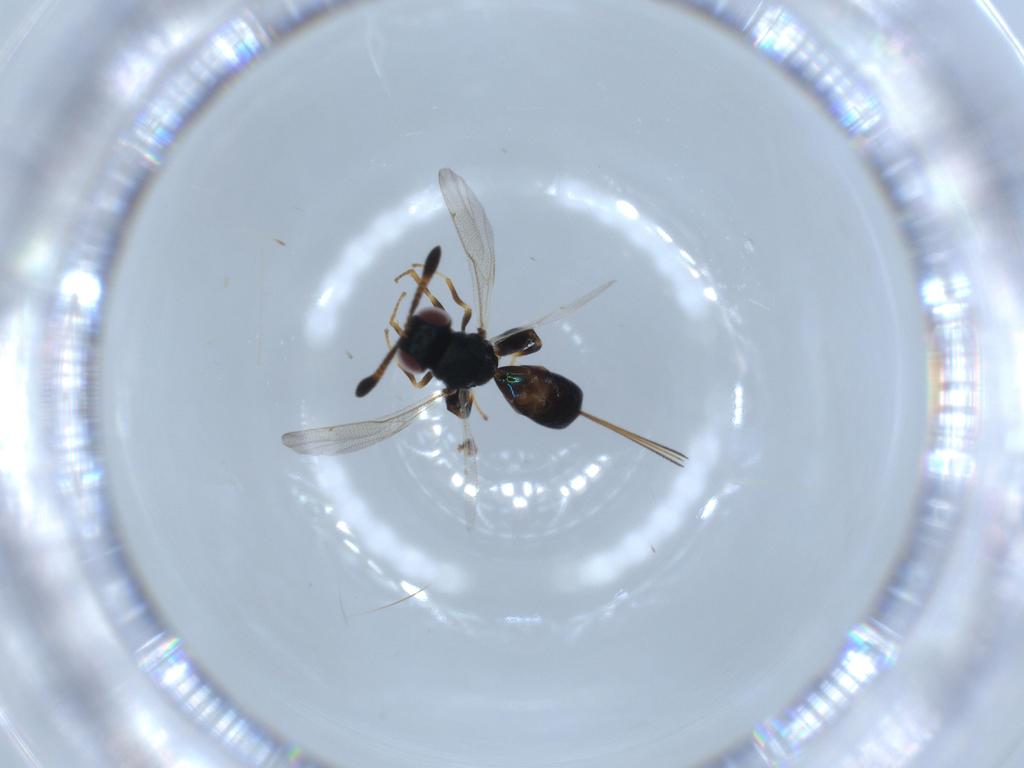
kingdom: Animalia
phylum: Arthropoda
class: Insecta
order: Hymenoptera
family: Torymidae
